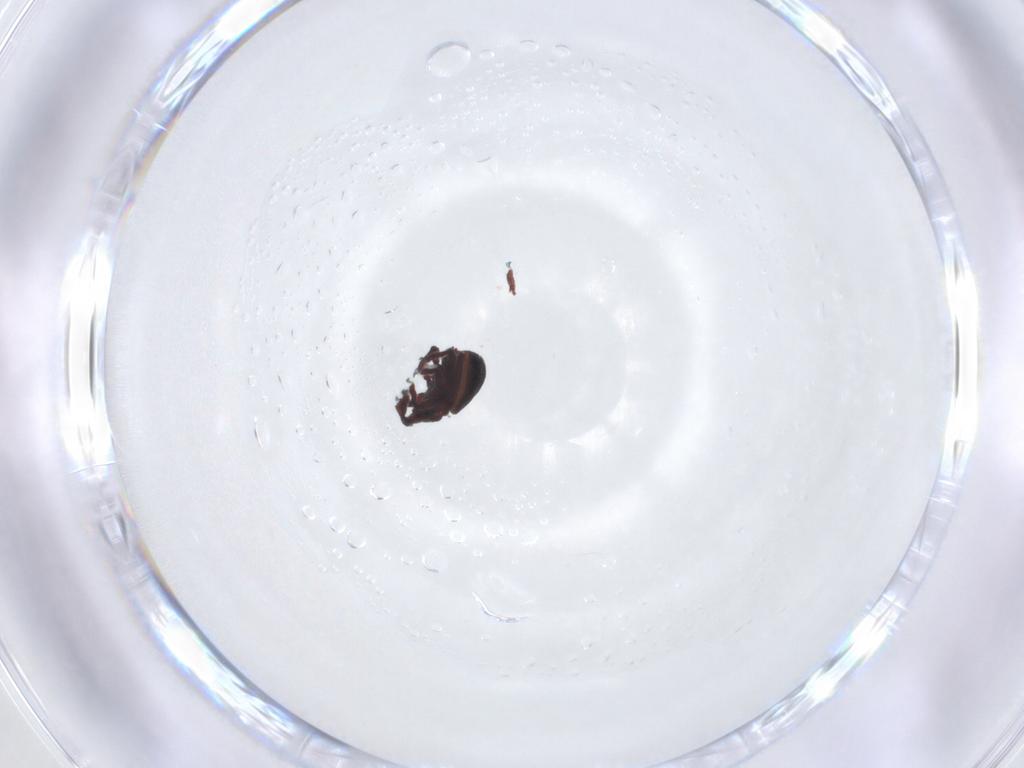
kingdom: Animalia
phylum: Arthropoda
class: Arachnida
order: Sarcoptiformes
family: Neoliodidae
